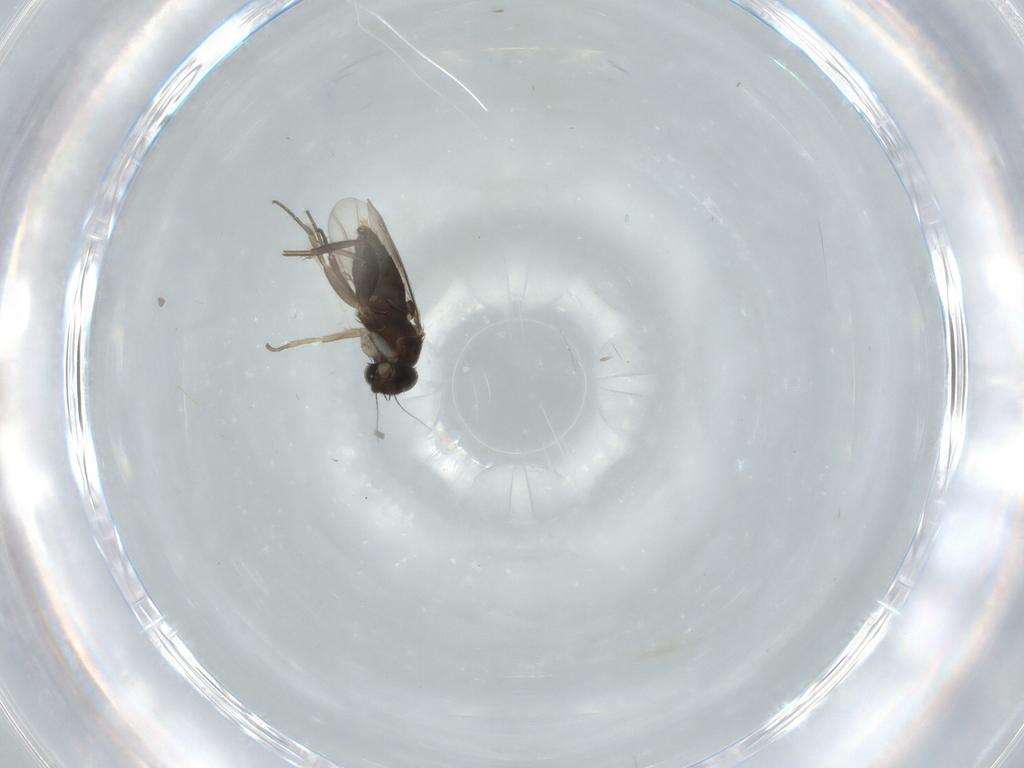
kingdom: Animalia
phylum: Arthropoda
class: Insecta
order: Diptera
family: Phoridae
